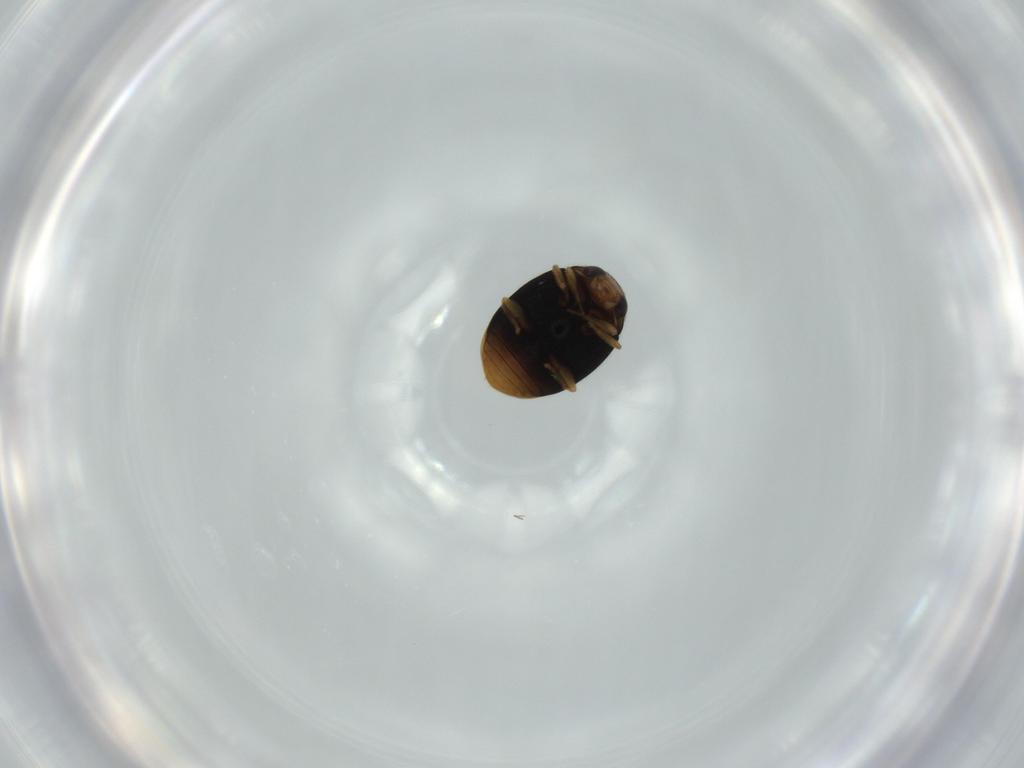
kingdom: Animalia
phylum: Arthropoda
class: Insecta
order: Coleoptera
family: Coccinellidae
